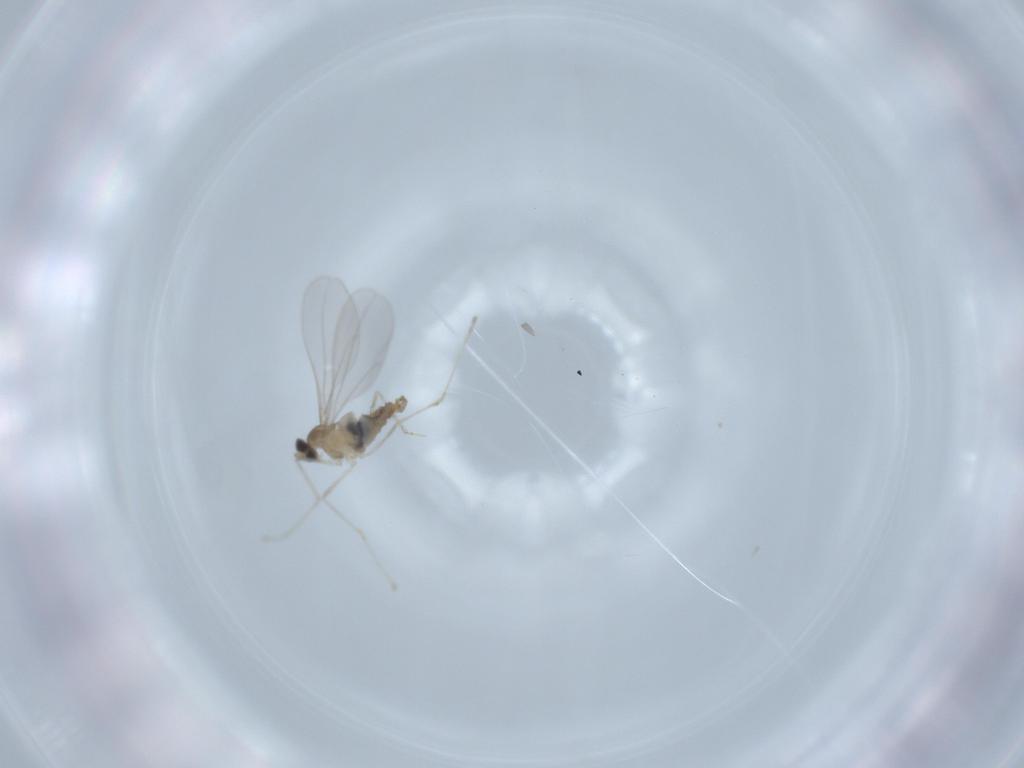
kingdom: Animalia
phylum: Arthropoda
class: Insecta
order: Diptera
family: Cecidomyiidae
